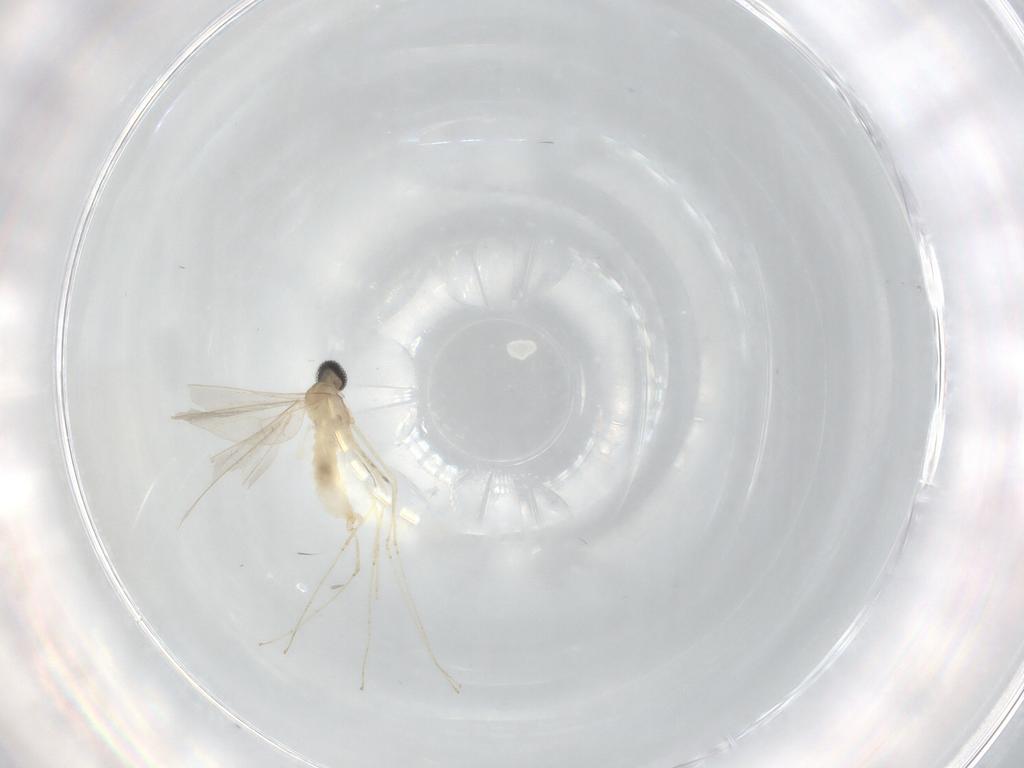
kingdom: Animalia
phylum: Arthropoda
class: Insecta
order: Diptera
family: Cecidomyiidae
